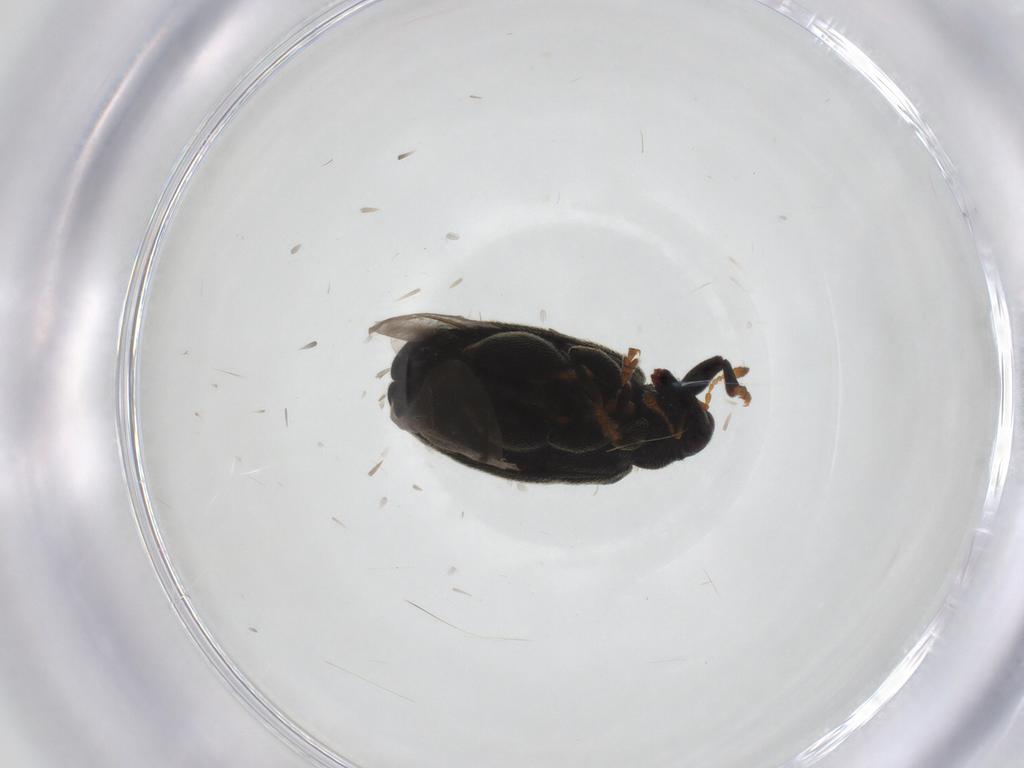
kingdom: Animalia
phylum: Arthropoda
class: Insecta
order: Coleoptera
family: Curculionidae
